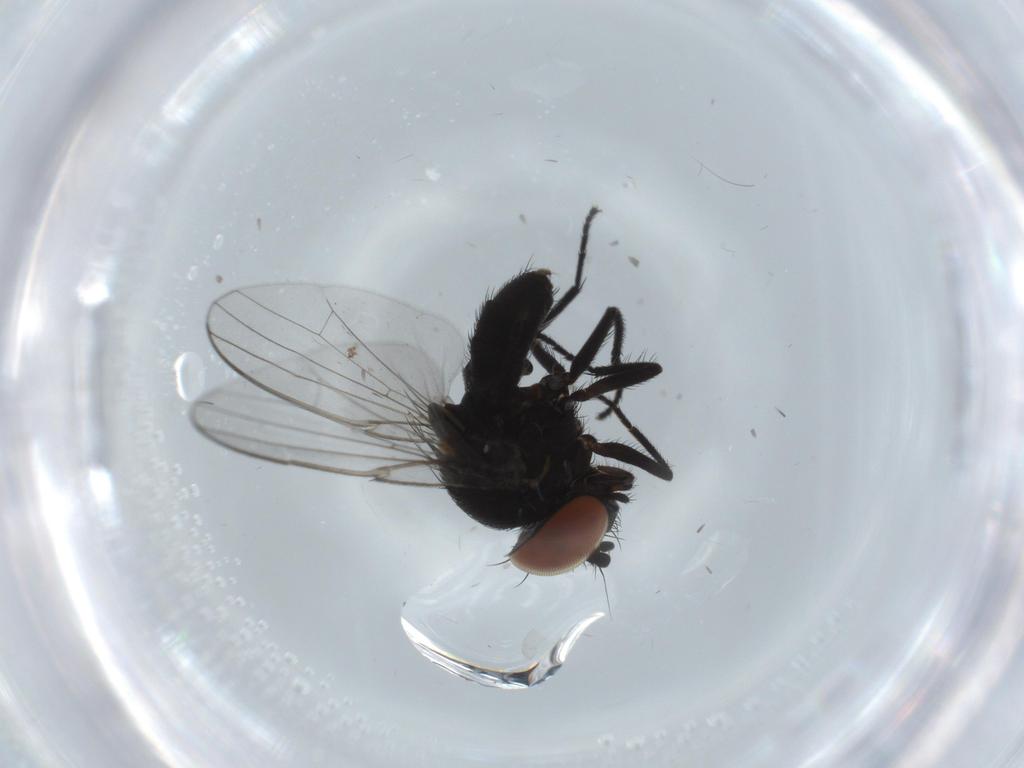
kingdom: Animalia
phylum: Arthropoda
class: Insecta
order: Diptera
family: Milichiidae
